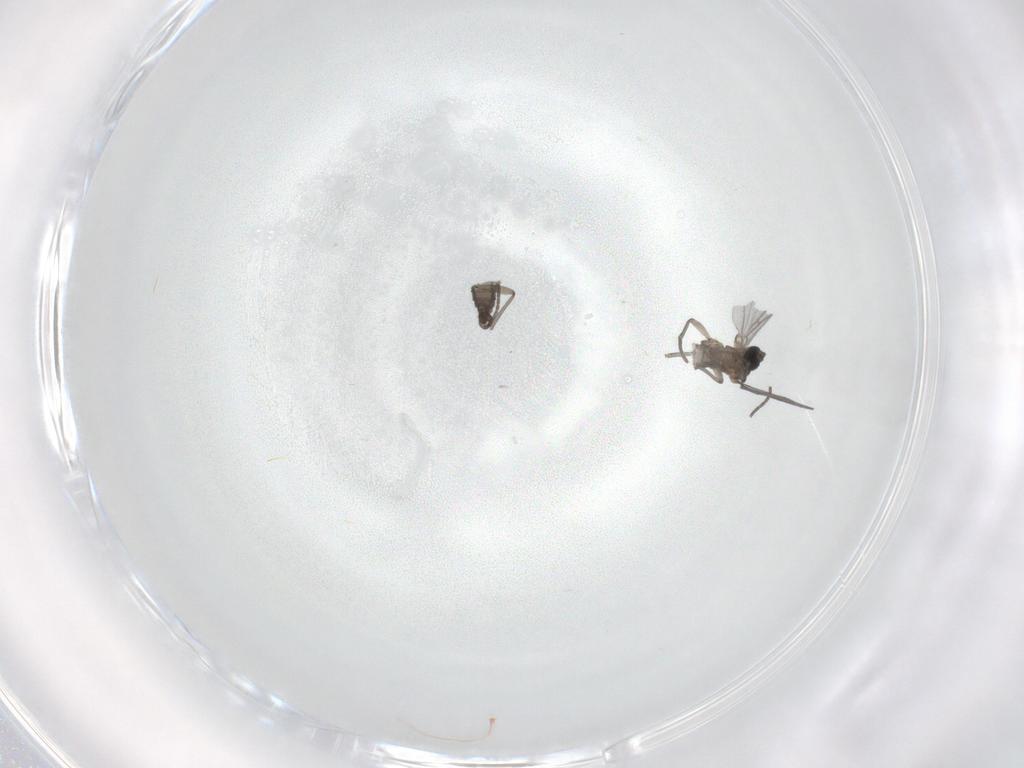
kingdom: Animalia
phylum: Arthropoda
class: Insecta
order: Diptera
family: Sciaridae
